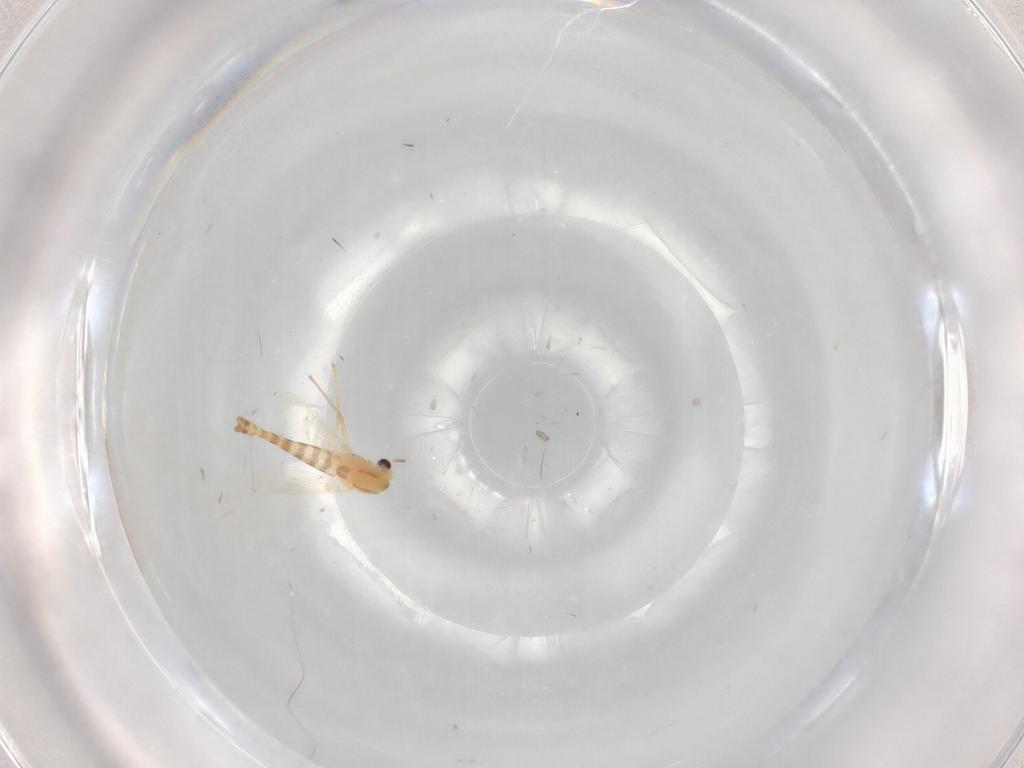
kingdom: Animalia
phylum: Arthropoda
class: Insecta
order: Diptera
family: Chironomidae
